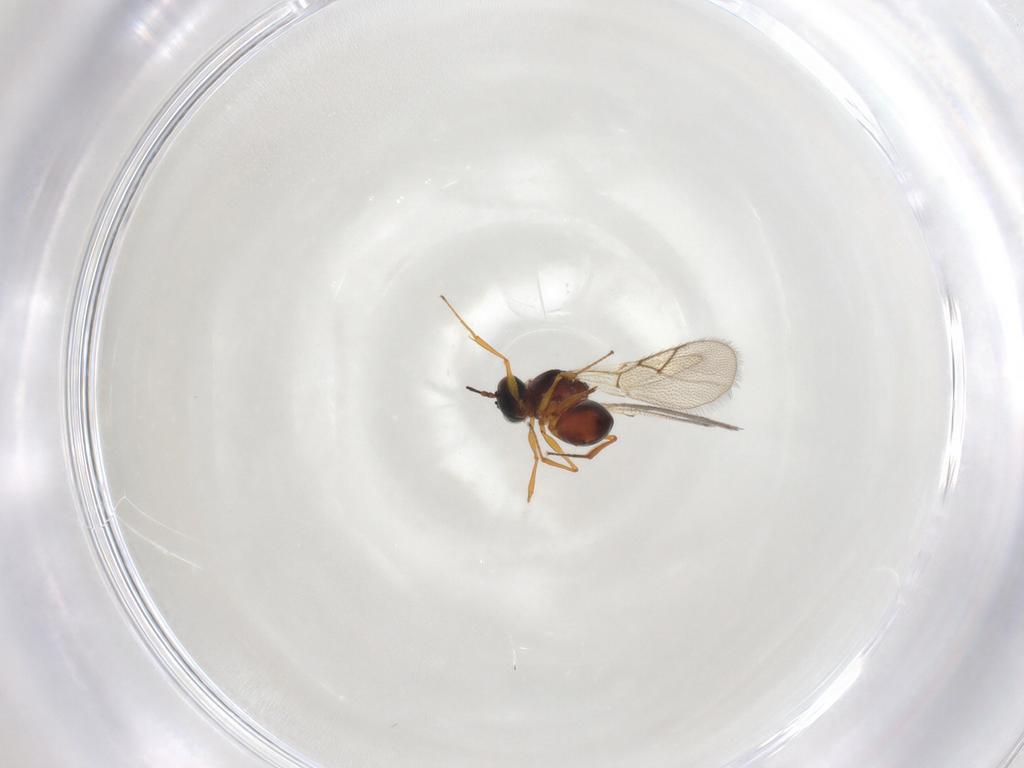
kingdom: Animalia
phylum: Arthropoda
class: Insecta
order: Hymenoptera
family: Figitidae
